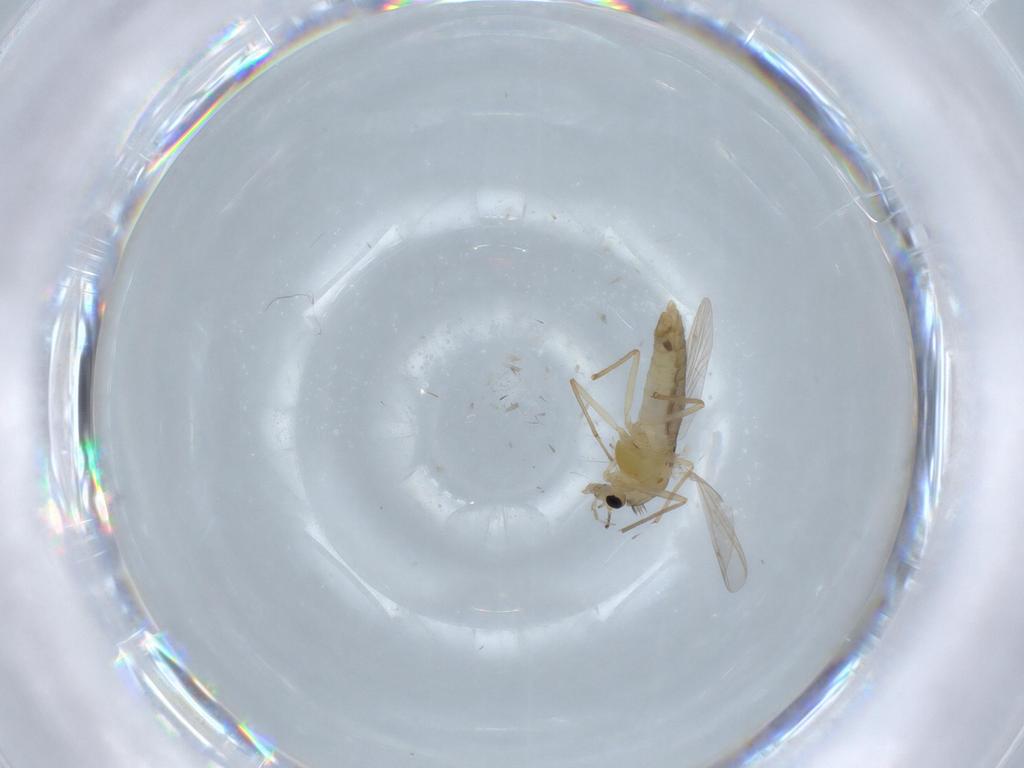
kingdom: Animalia
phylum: Arthropoda
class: Insecta
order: Diptera
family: Chironomidae
